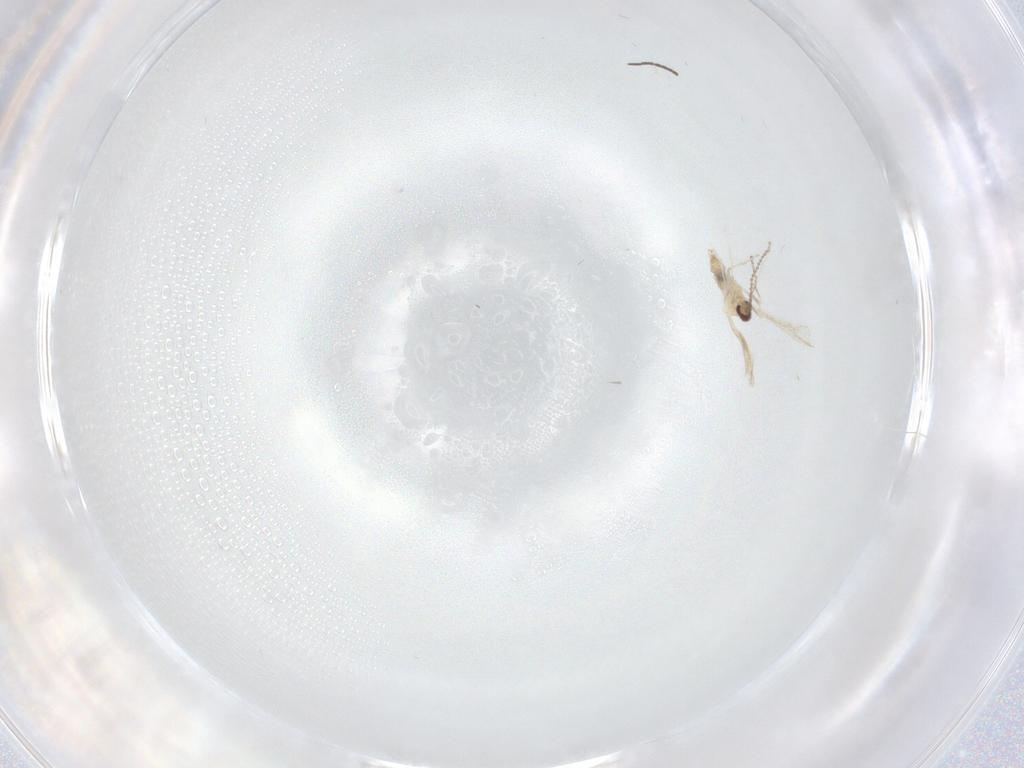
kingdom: Animalia
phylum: Arthropoda
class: Insecta
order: Diptera
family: Cecidomyiidae
